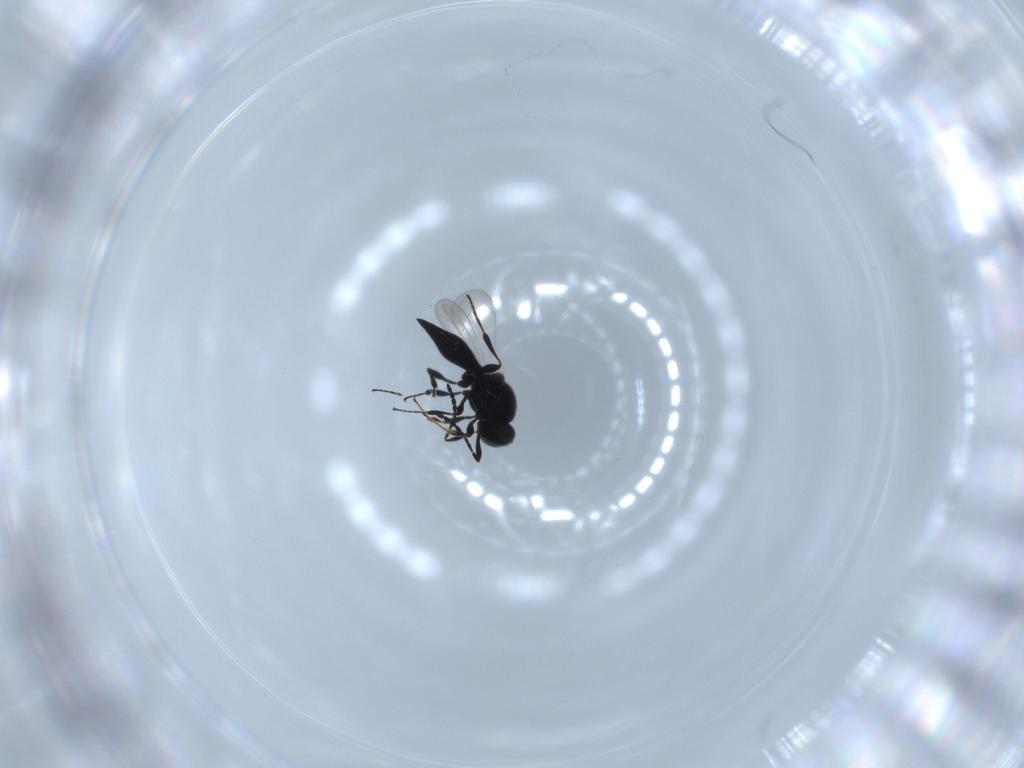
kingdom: Animalia
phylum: Arthropoda
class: Insecta
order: Diptera
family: Mythicomyiidae
